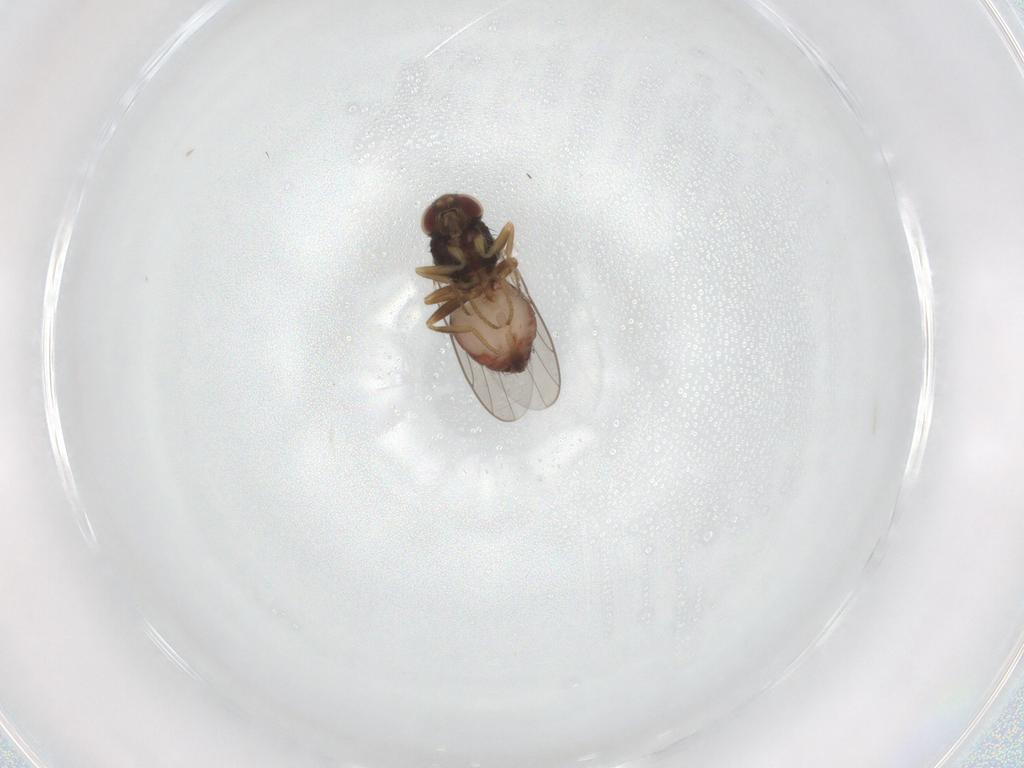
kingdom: Animalia
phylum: Arthropoda
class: Insecta
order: Diptera
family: Chloropidae
